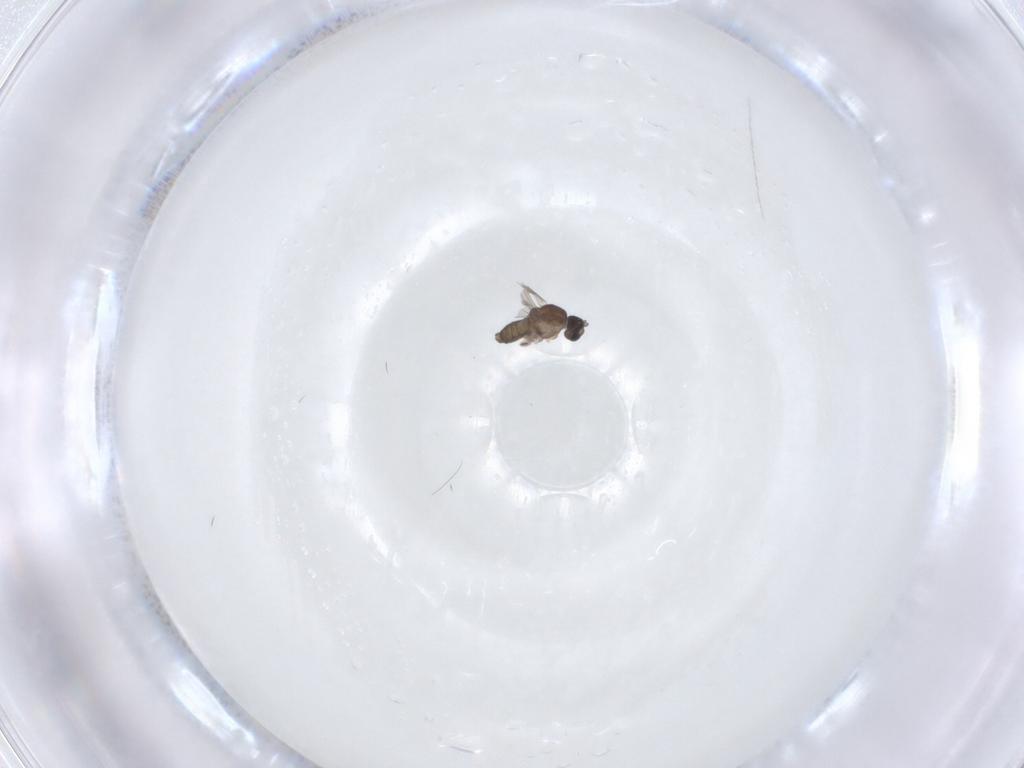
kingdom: Animalia
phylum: Arthropoda
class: Insecta
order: Diptera
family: Cecidomyiidae
